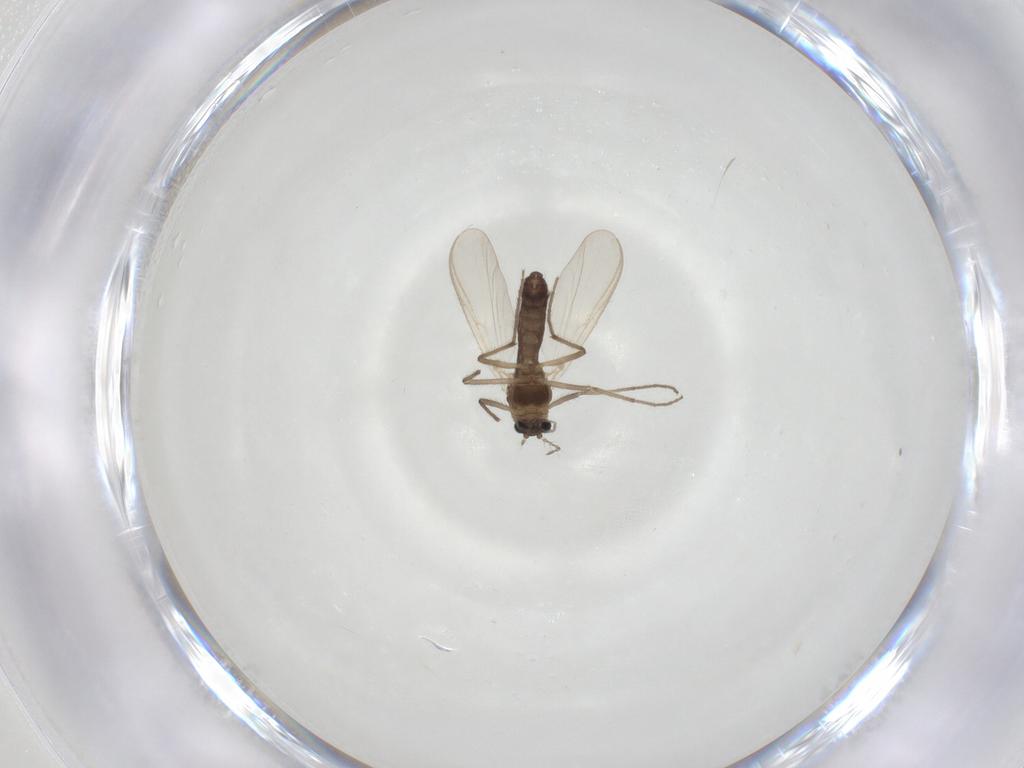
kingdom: Animalia
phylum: Arthropoda
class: Insecta
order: Diptera
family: Chironomidae
